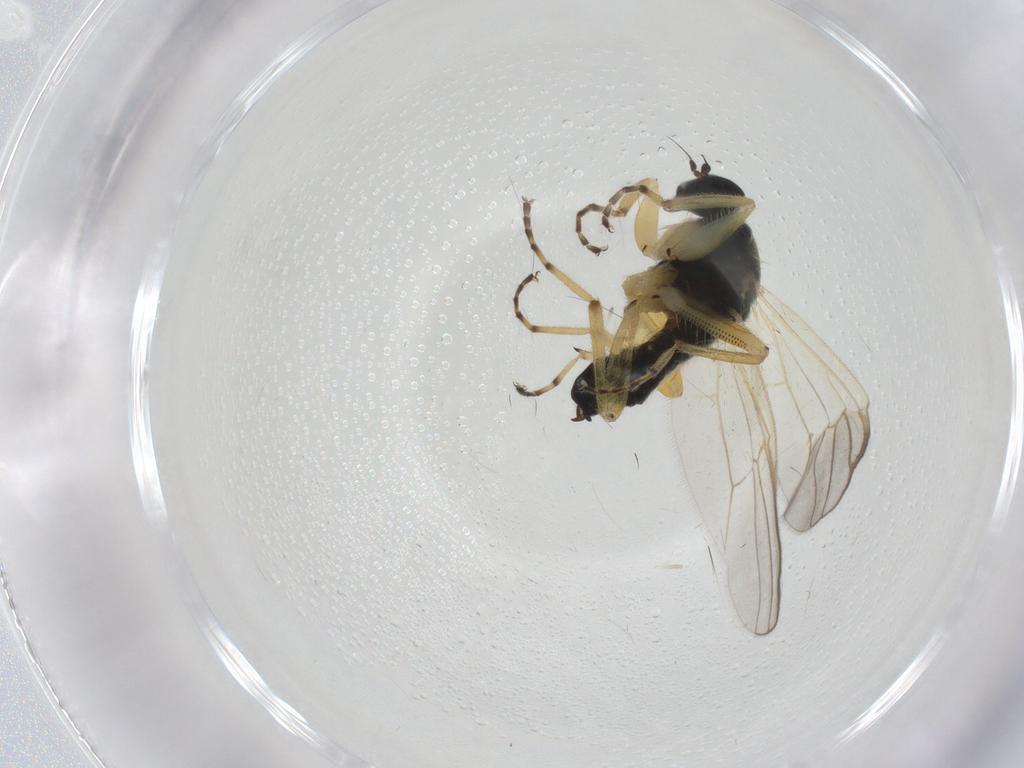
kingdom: Animalia
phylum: Arthropoda
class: Insecta
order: Diptera
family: Hybotidae
